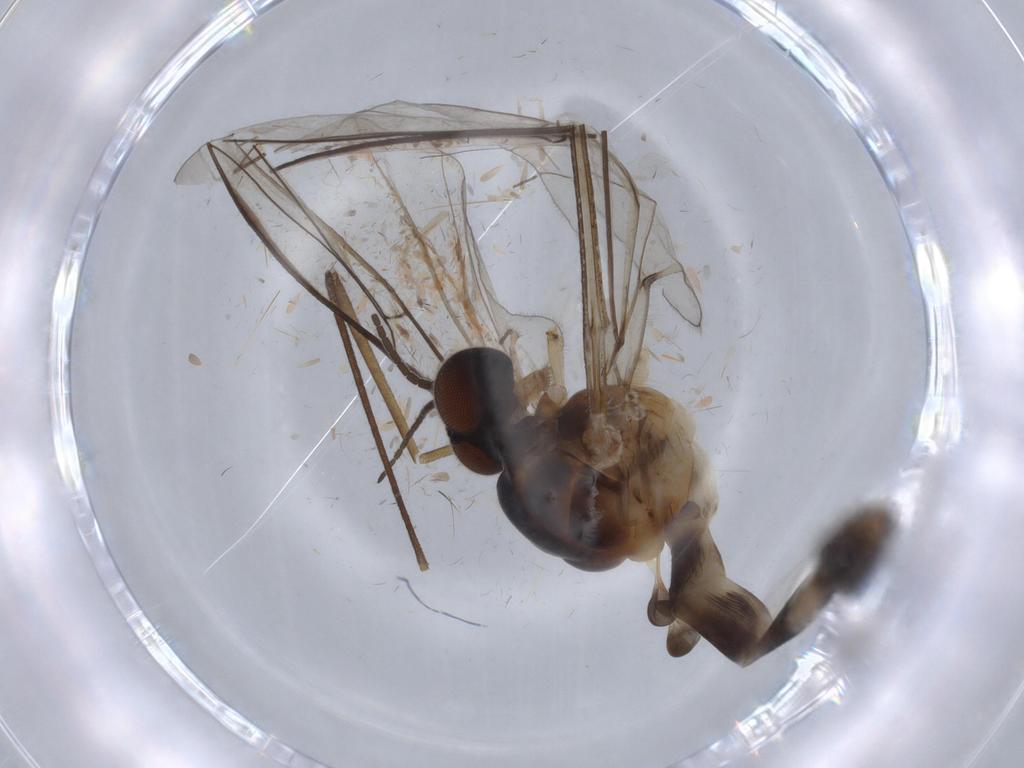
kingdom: Animalia
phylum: Arthropoda
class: Insecta
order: Diptera
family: Blephariceridae
